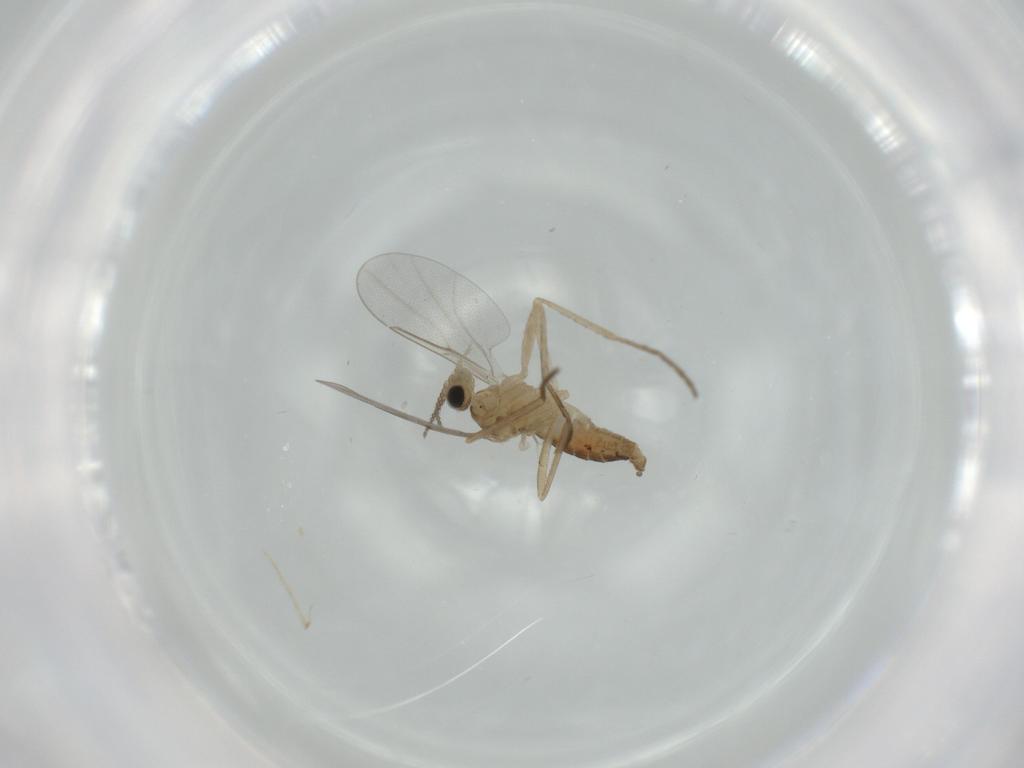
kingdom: Animalia
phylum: Arthropoda
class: Insecta
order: Diptera
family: Cecidomyiidae
